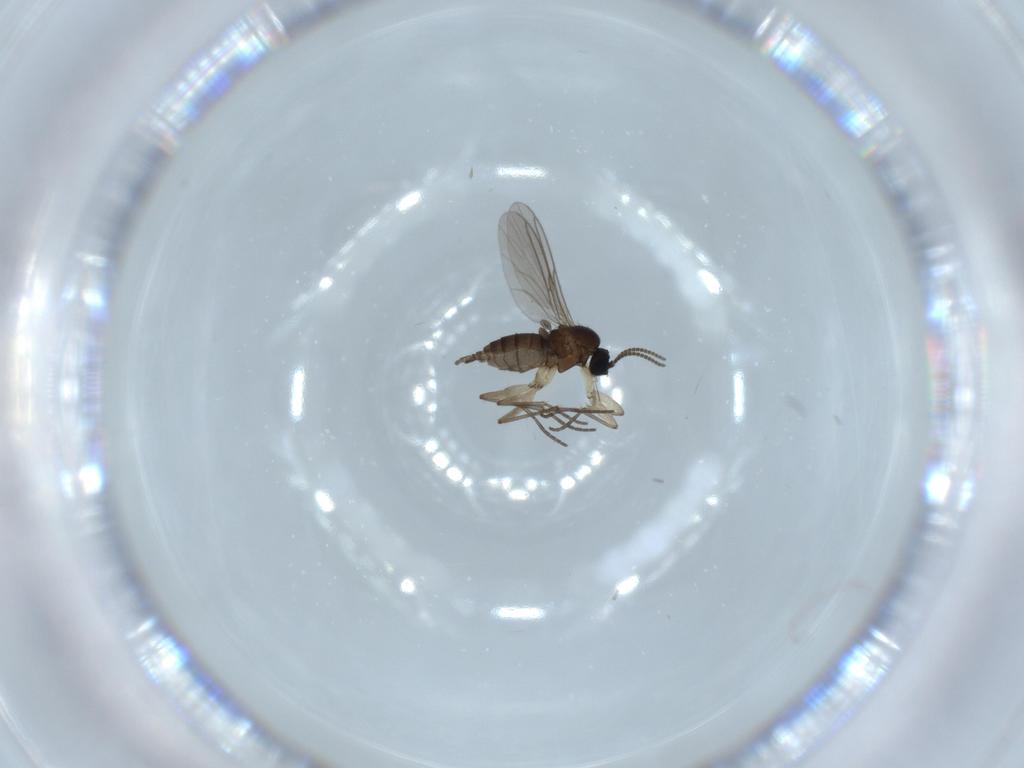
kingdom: Animalia
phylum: Arthropoda
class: Insecta
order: Diptera
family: Sciaridae
